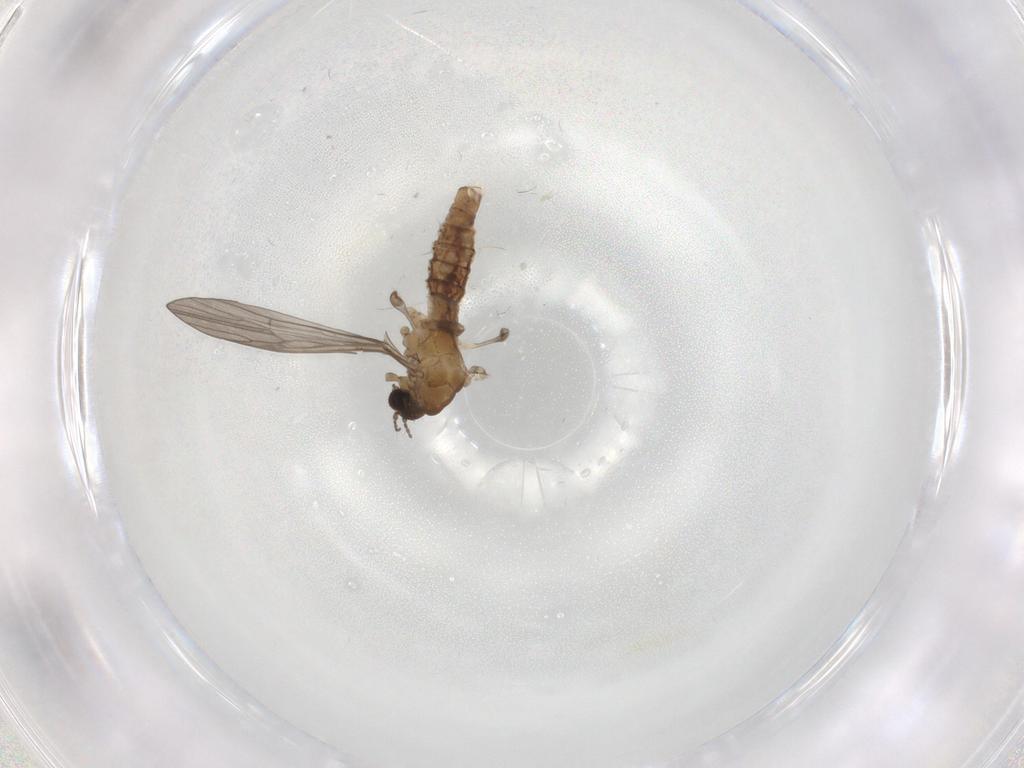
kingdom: Animalia
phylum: Arthropoda
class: Insecta
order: Diptera
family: Limoniidae
